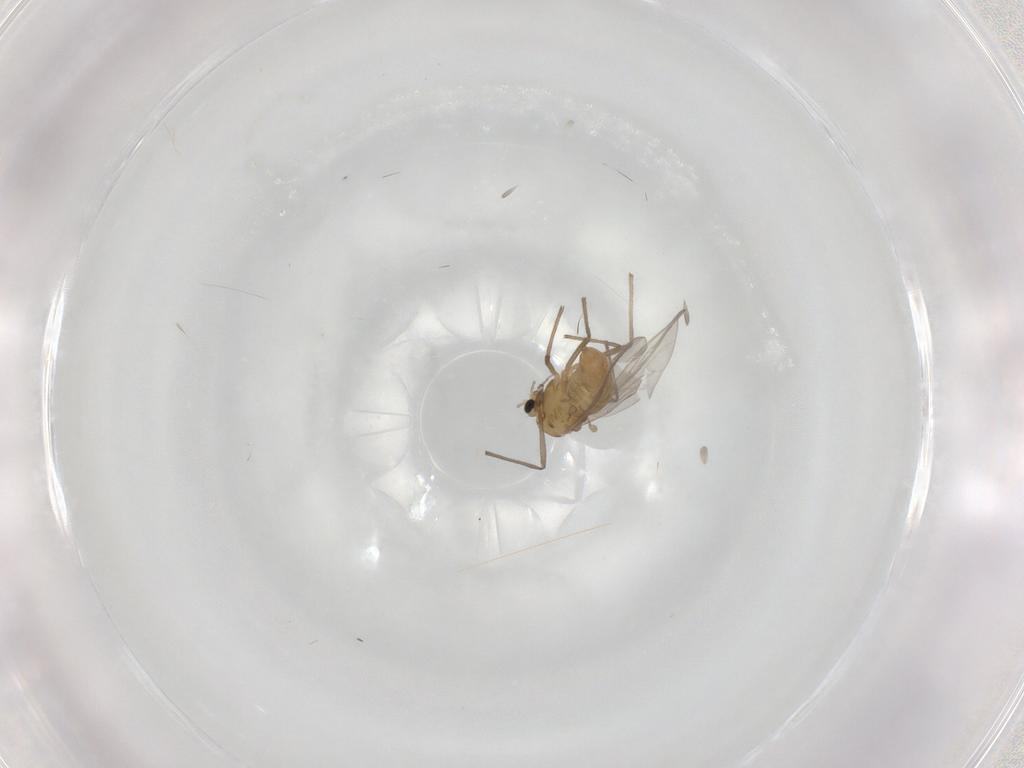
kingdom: Animalia
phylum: Arthropoda
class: Insecta
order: Diptera
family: Chironomidae
